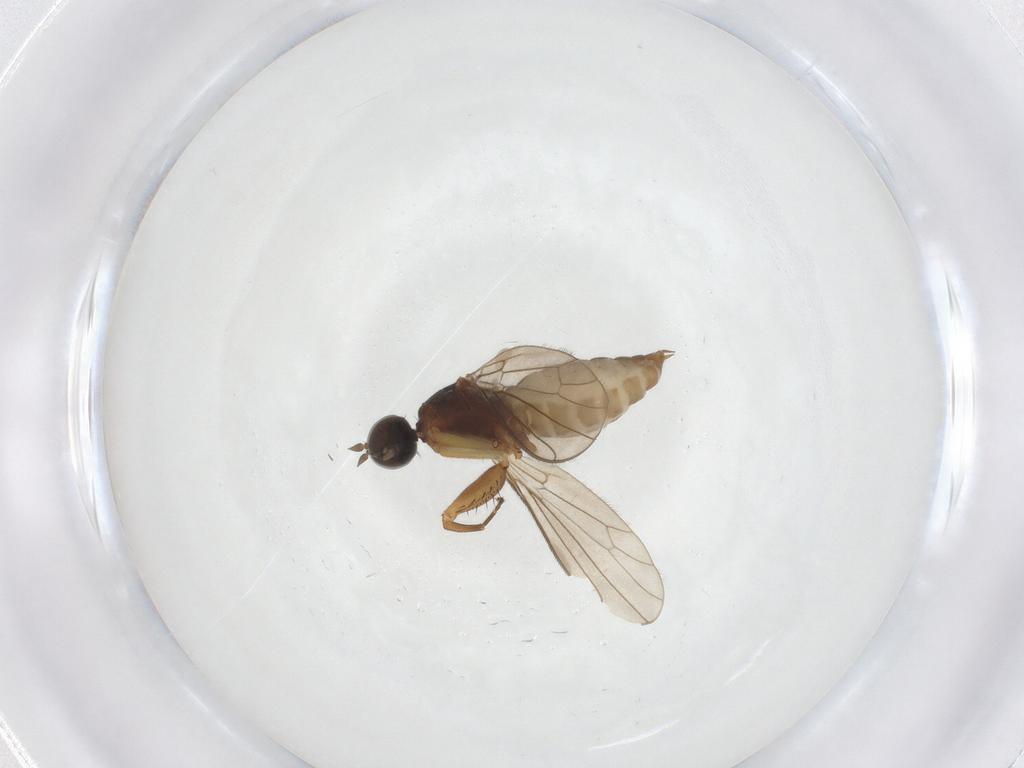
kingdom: Animalia
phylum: Arthropoda
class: Insecta
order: Diptera
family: Empididae
